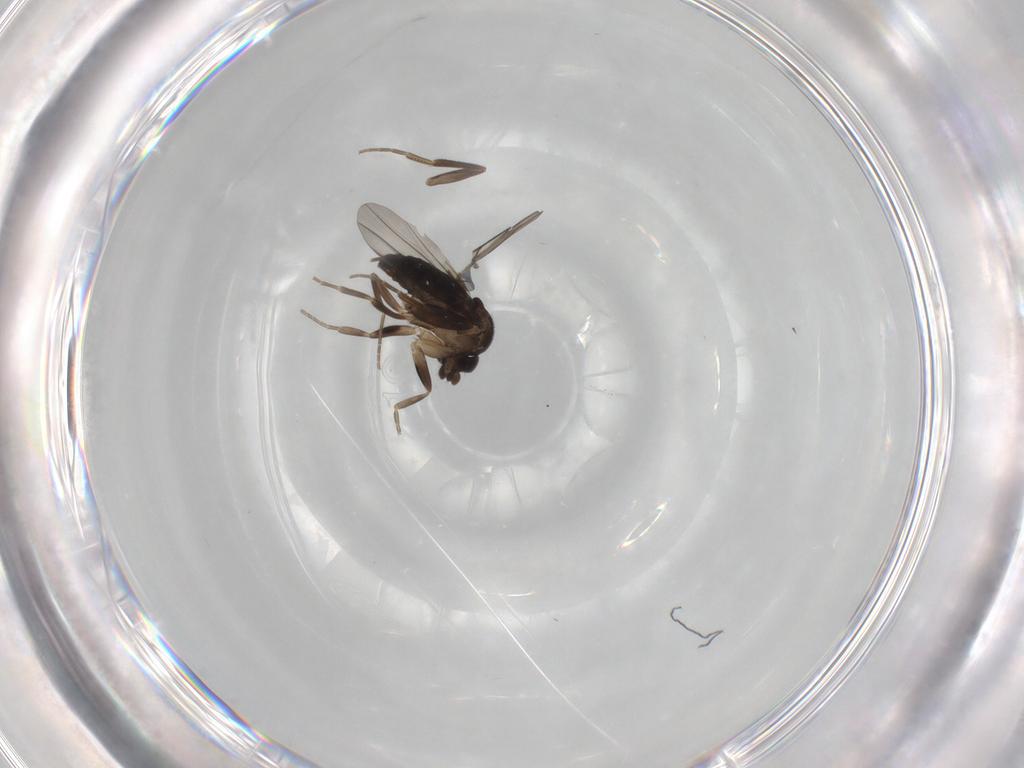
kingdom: Animalia
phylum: Arthropoda
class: Insecta
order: Diptera
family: Phoridae
